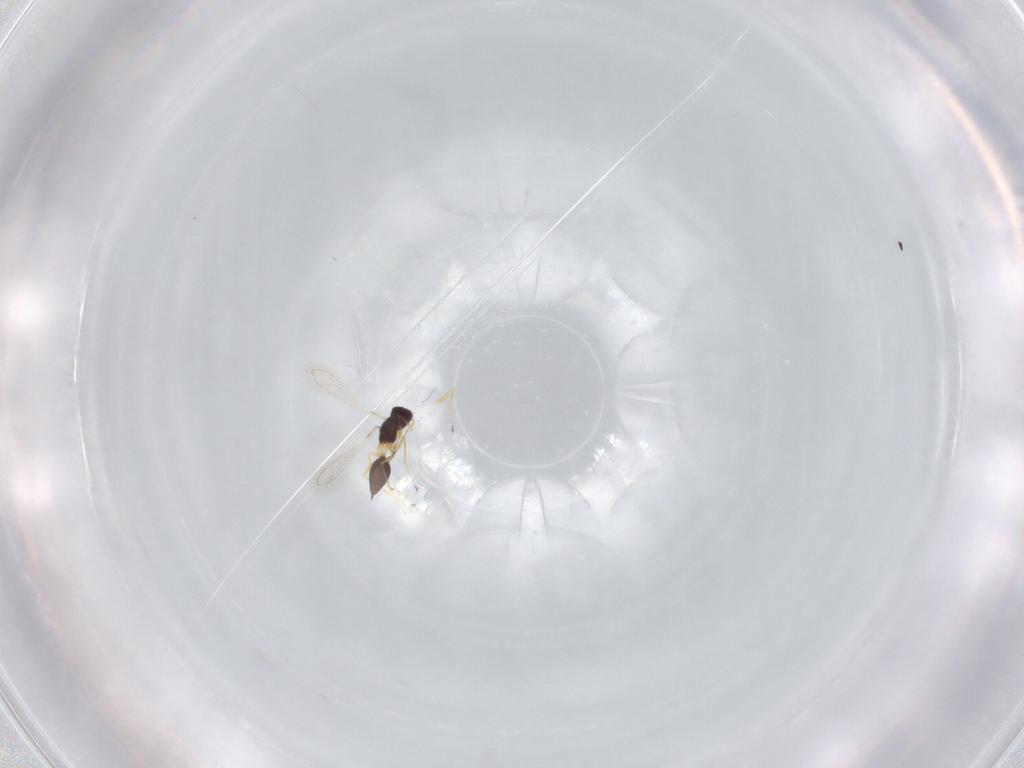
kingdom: Animalia
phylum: Arthropoda
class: Insecta
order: Hymenoptera
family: Mymaridae
